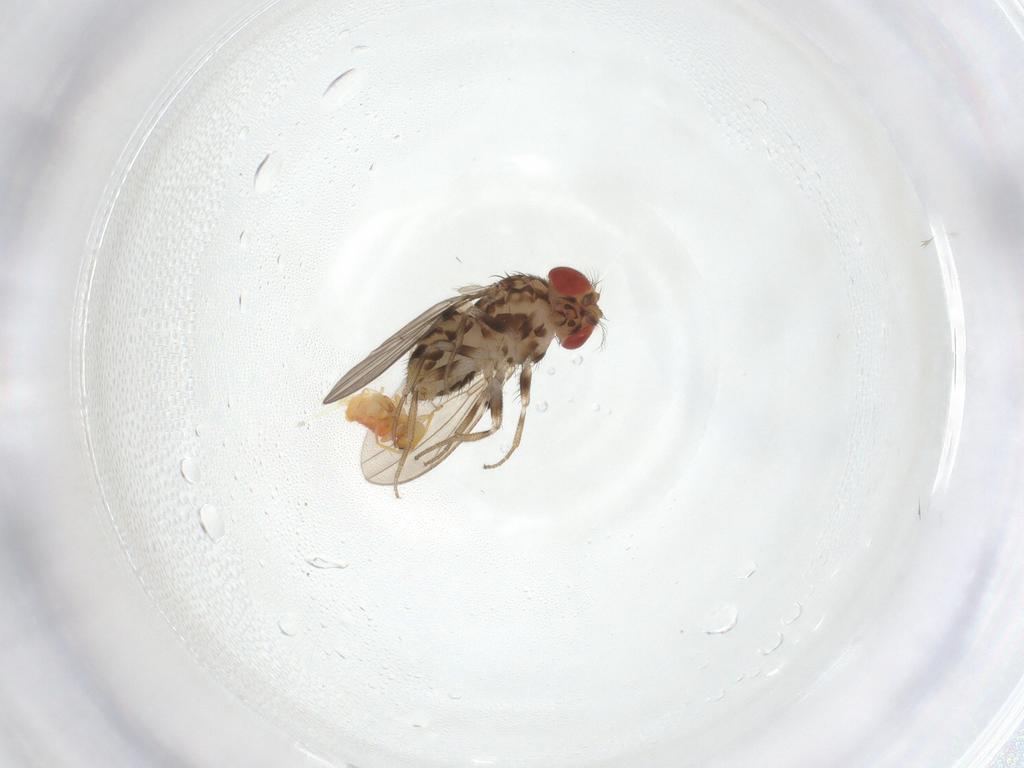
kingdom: Animalia
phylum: Arthropoda
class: Insecta
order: Diptera
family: Drosophilidae
